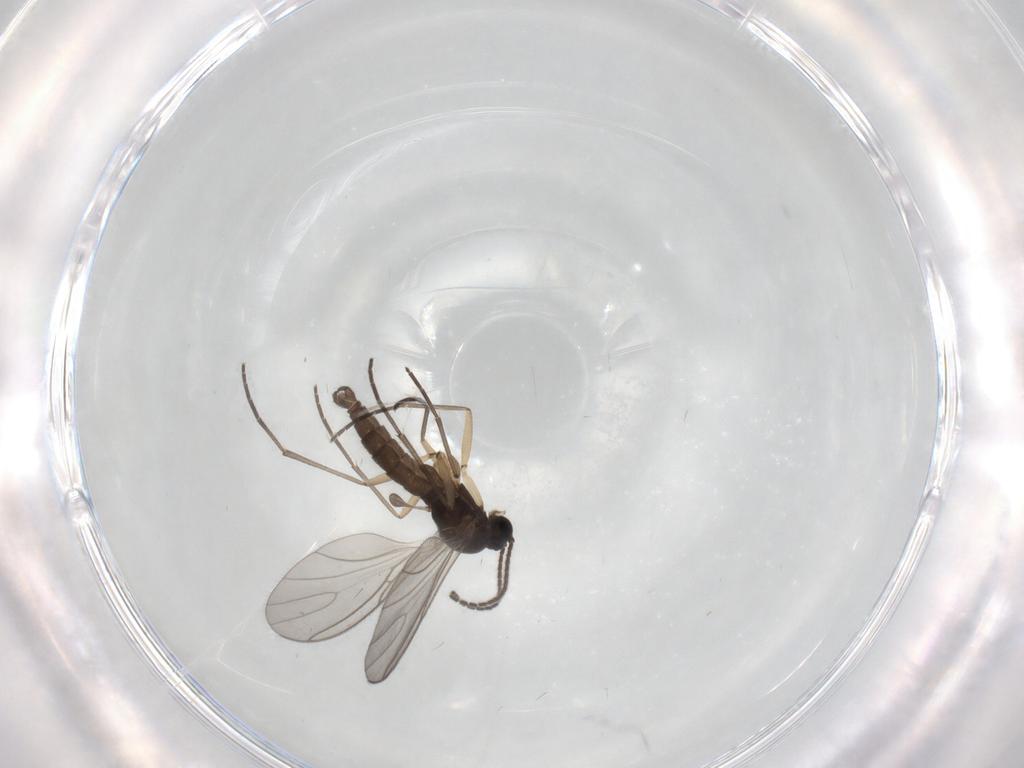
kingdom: Animalia
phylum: Arthropoda
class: Insecta
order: Diptera
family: Sciaridae
